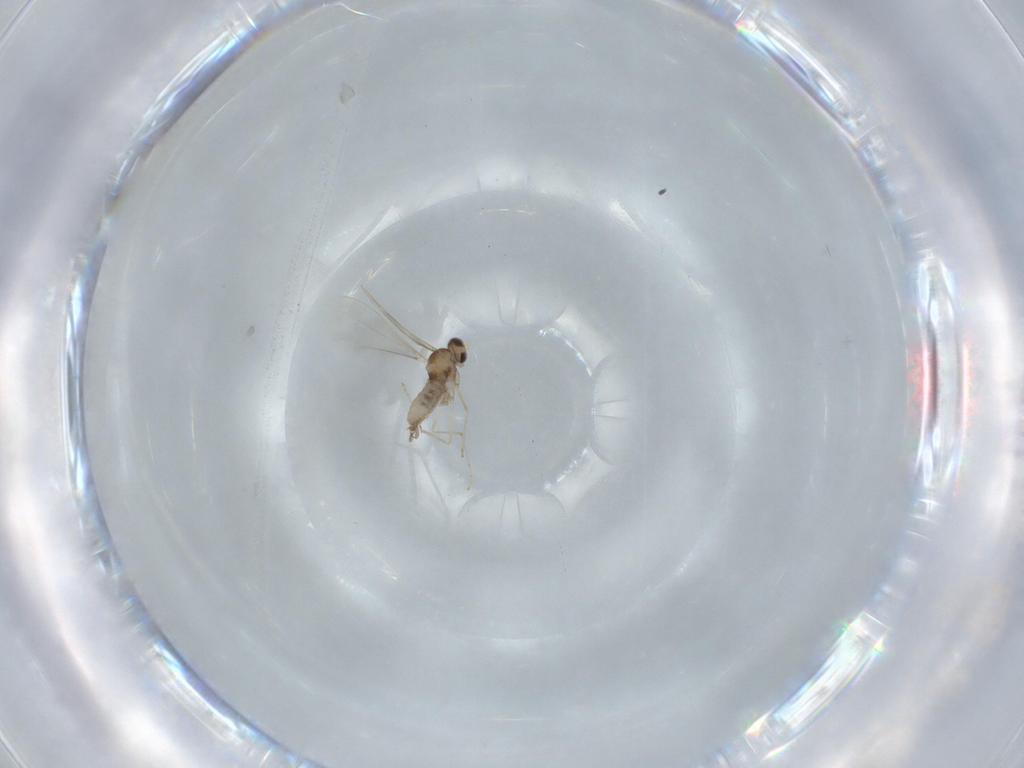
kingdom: Animalia
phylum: Arthropoda
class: Insecta
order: Diptera
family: Cecidomyiidae
